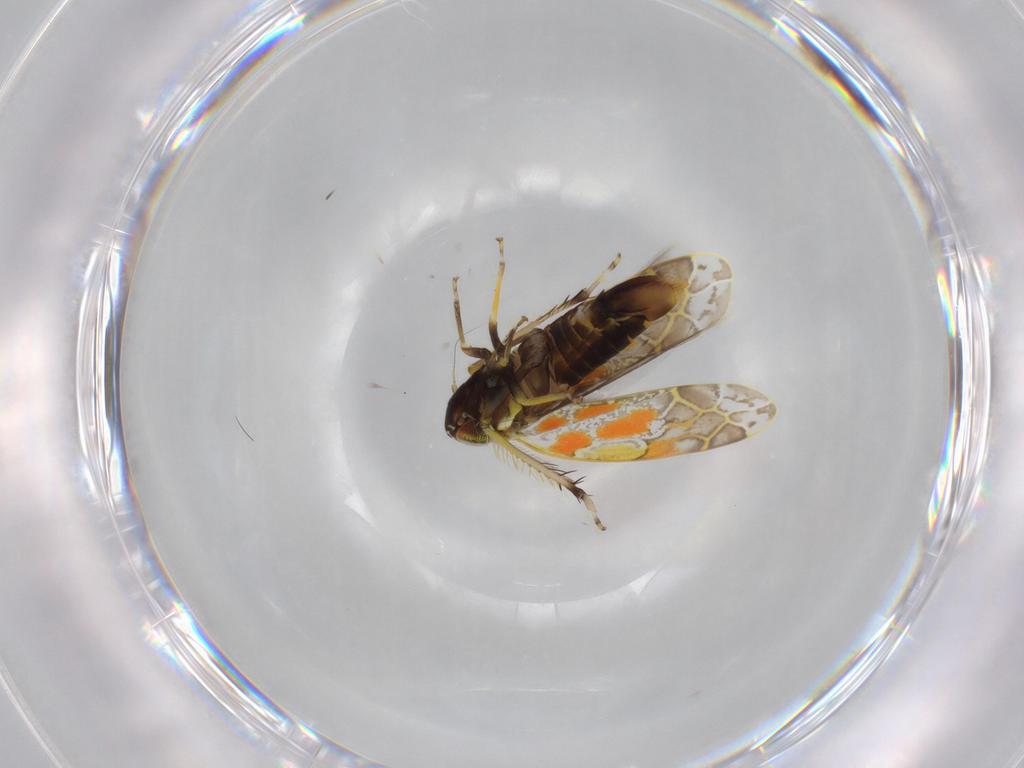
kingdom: Animalia
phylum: Arthropoda
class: Insecta
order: Hemiptera
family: Cicadellidae
